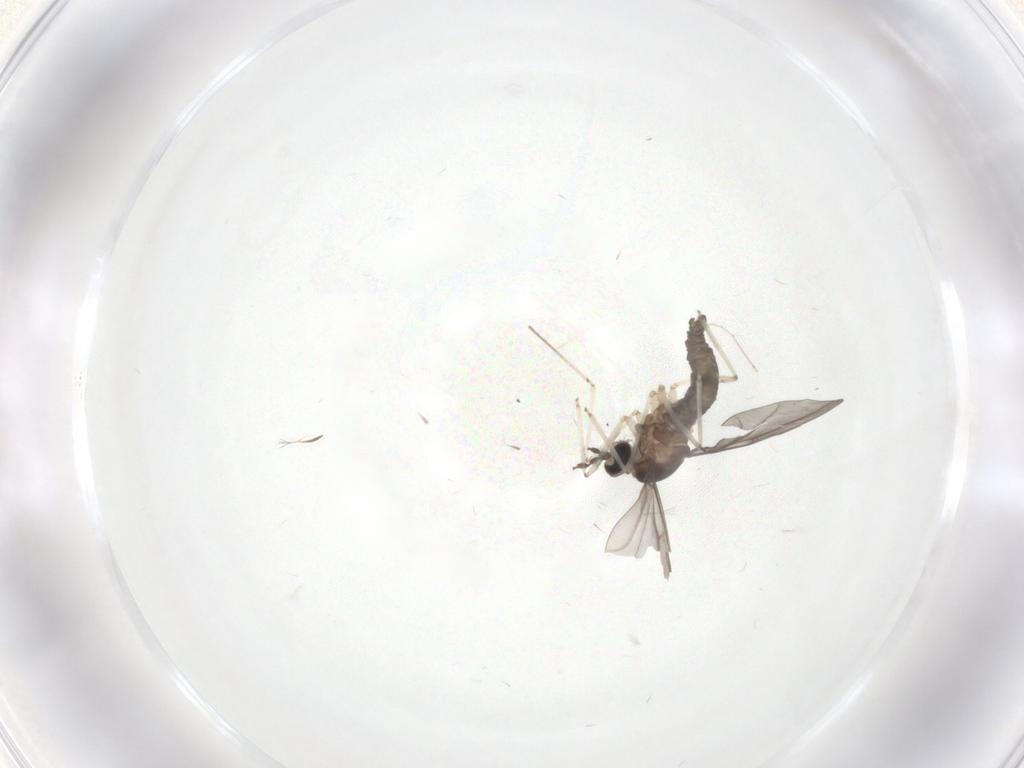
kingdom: Animalia
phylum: Arthropoda
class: Insecta
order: Diptera
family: Cecidomyiidae
